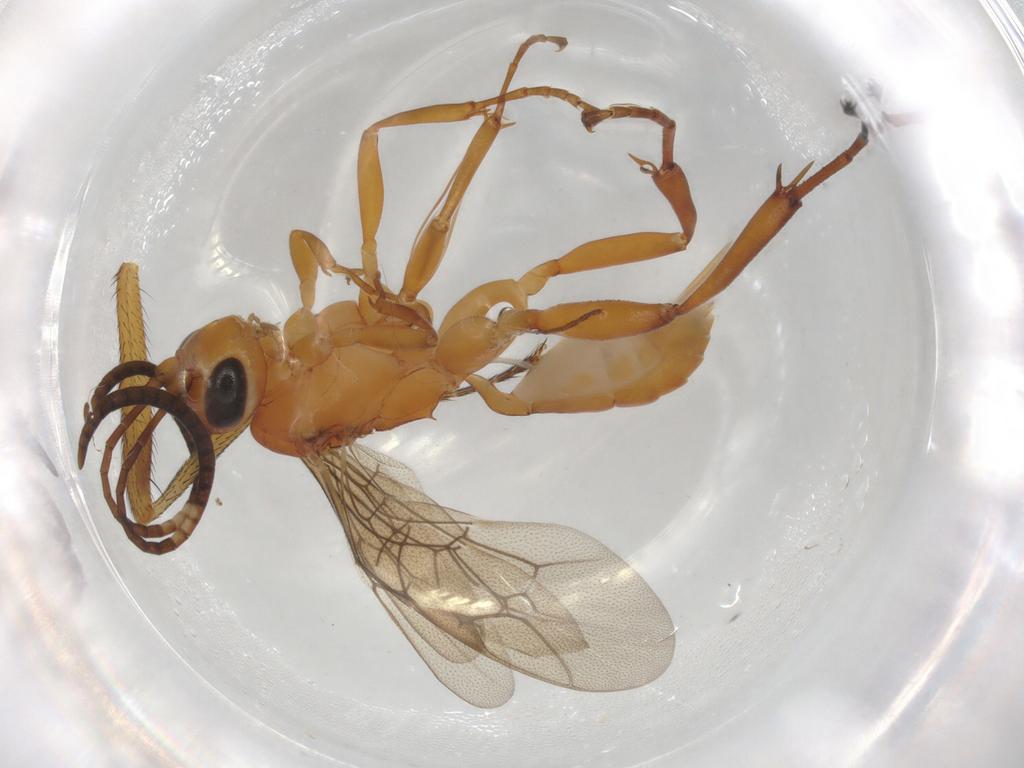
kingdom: Animalia
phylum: Arthropoda
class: Insecta
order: Hymenoptera
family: Ichneumonidae
